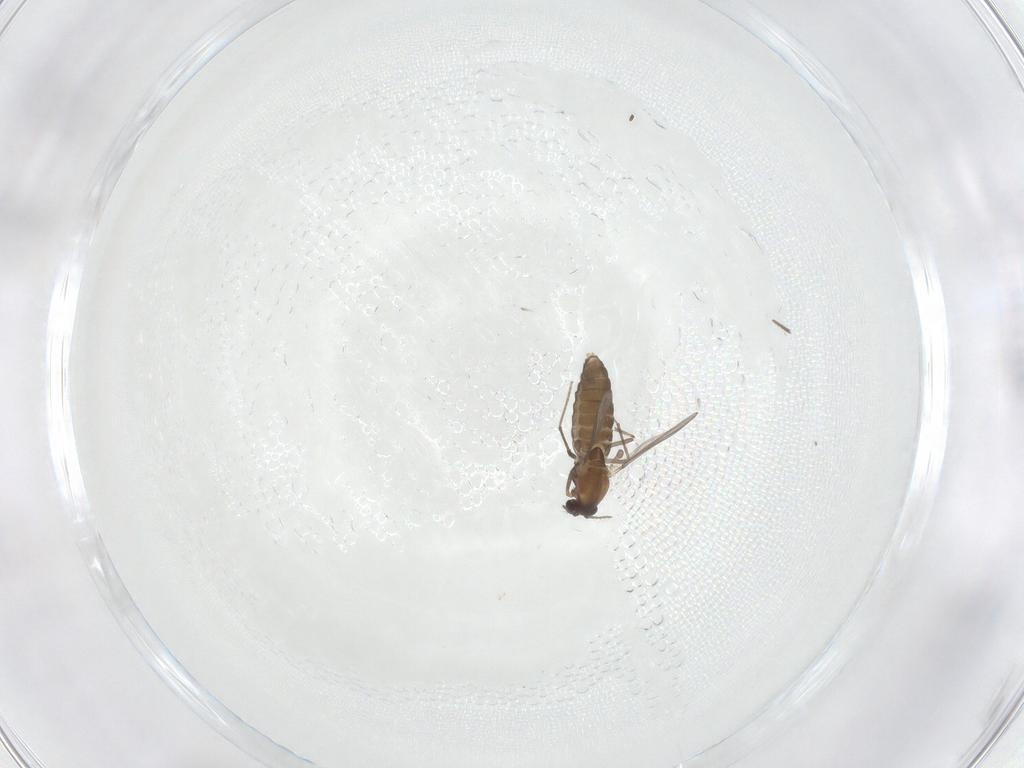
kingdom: Animalia
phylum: Arthropoda
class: Insecta
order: Diptera
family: Chironomidae
